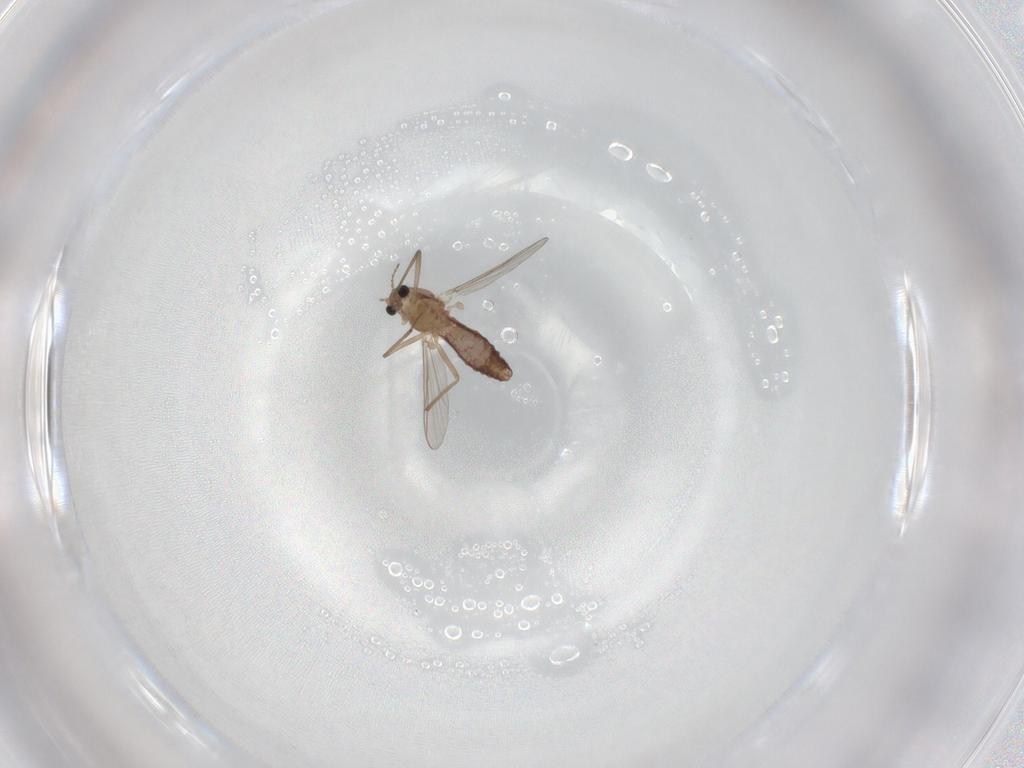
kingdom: Animalia
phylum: Arthropoda
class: Insecta
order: Diptera
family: Chironomidae
